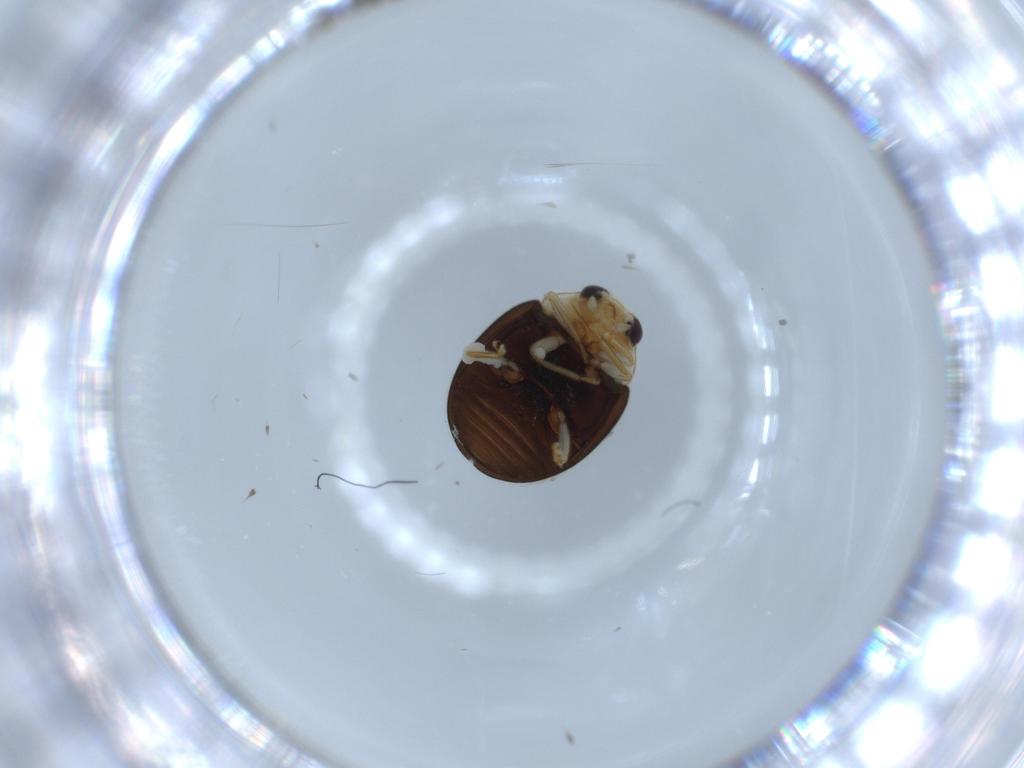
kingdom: Animalia
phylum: Arthropoda
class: Insecta
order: Coleoptera
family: Coccinellidae
